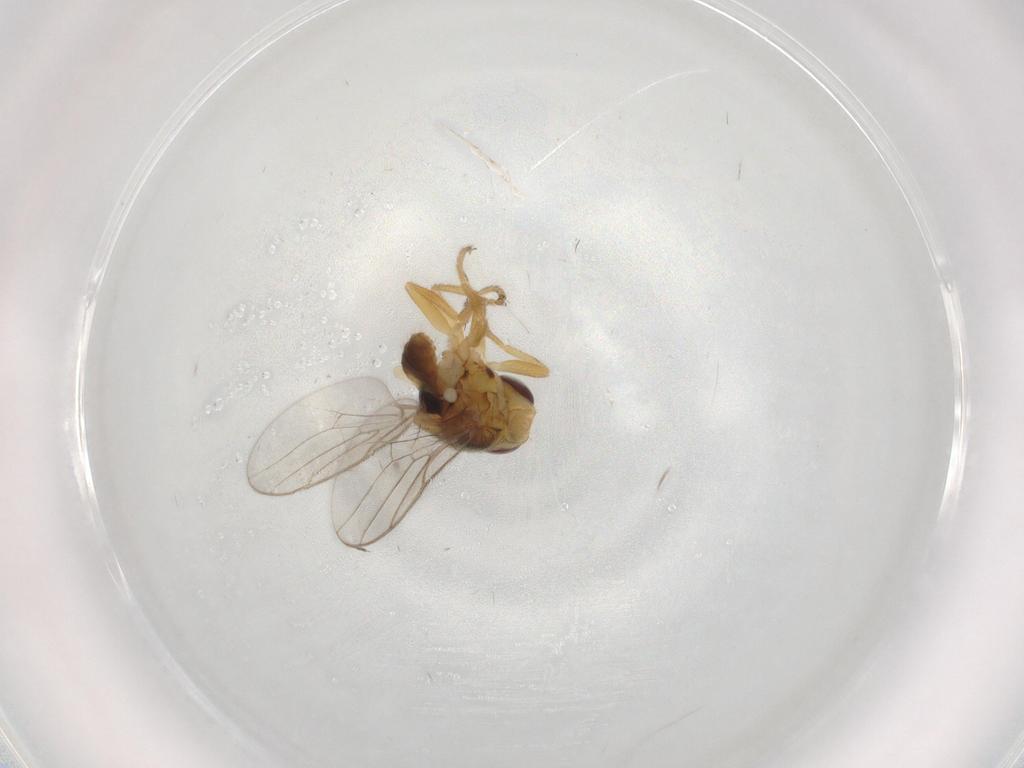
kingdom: Animalia
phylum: Arthropoda
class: Insecta
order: Diptera
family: Chloropidae
